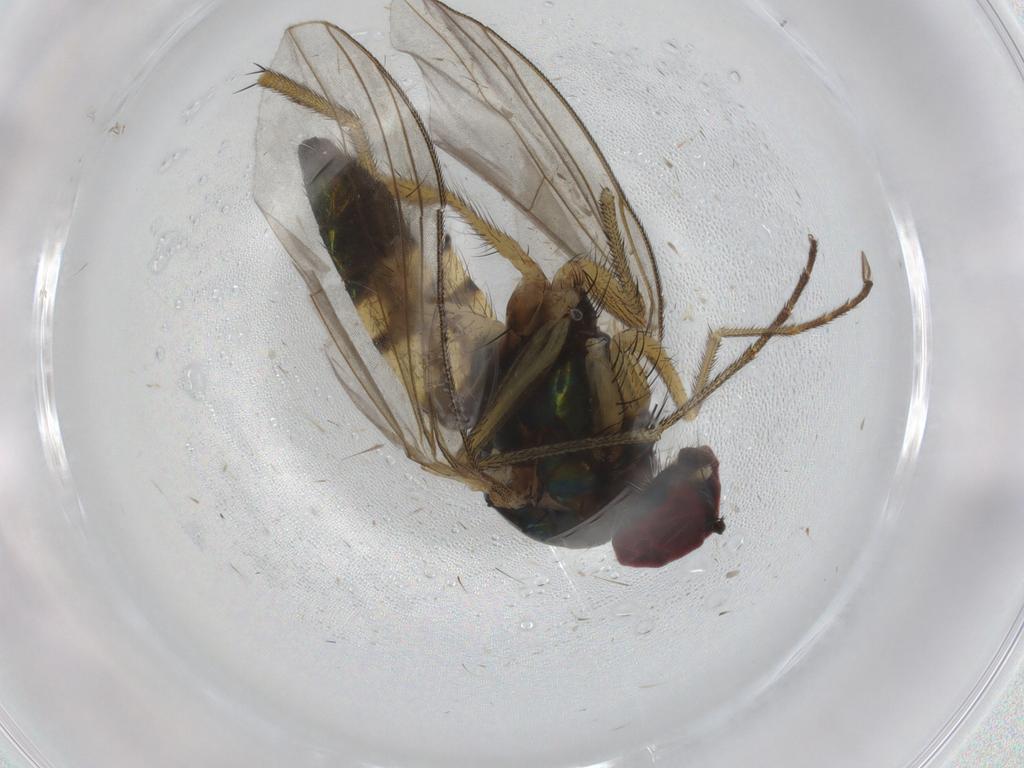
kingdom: Animalia
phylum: Arthropoda
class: Insecta
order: Diptera
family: Dolichopodidae
